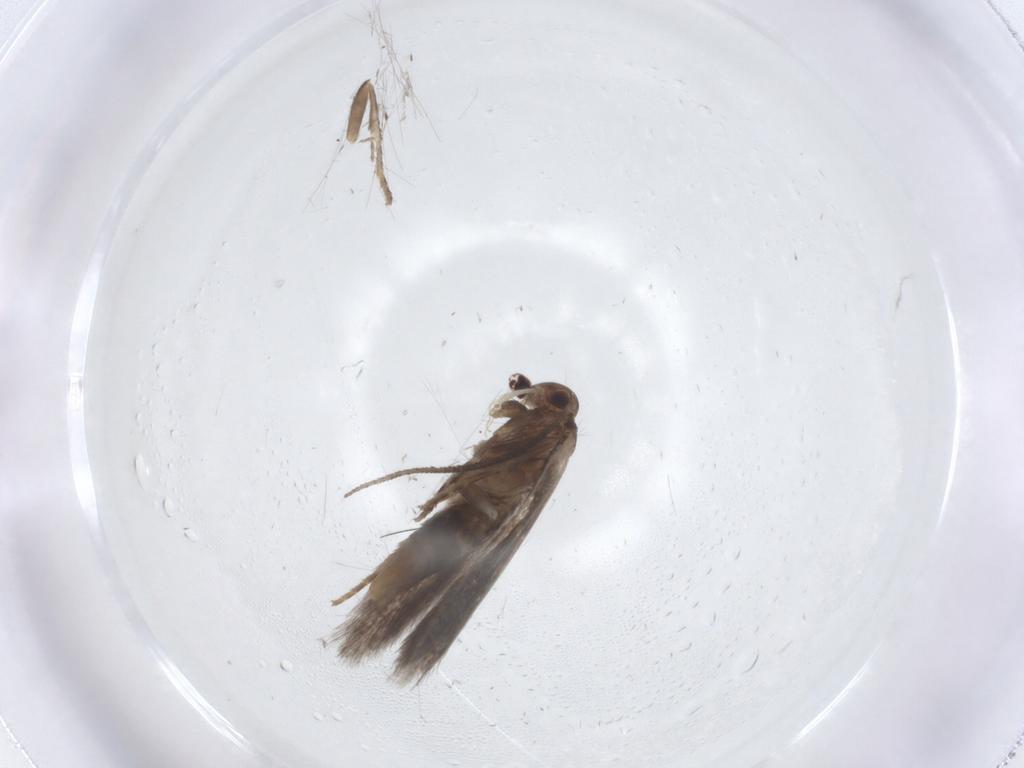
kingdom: Animalia
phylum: Arthropoda
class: Insecta
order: Lepidoptera
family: Elachistidae
